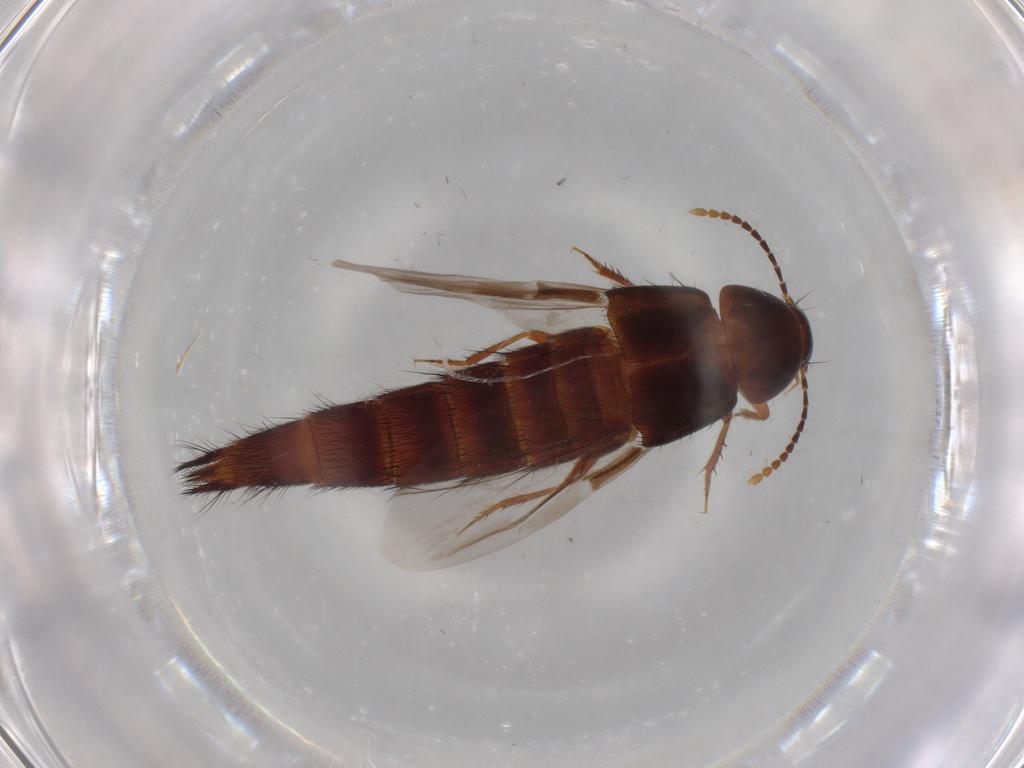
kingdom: Animalia
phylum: Arthropoda
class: Insecta
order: Coleoptera
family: Staphylinidae
